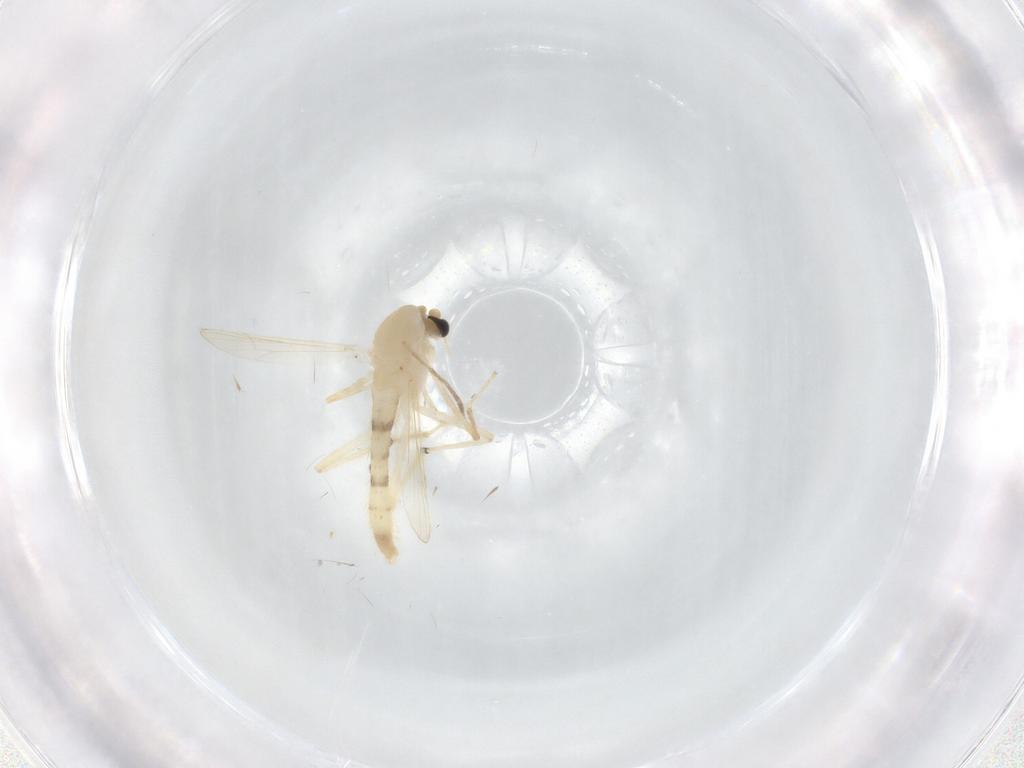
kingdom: Animalia
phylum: Arthropoda
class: Insecta
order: Diptera
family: Chironomidae
